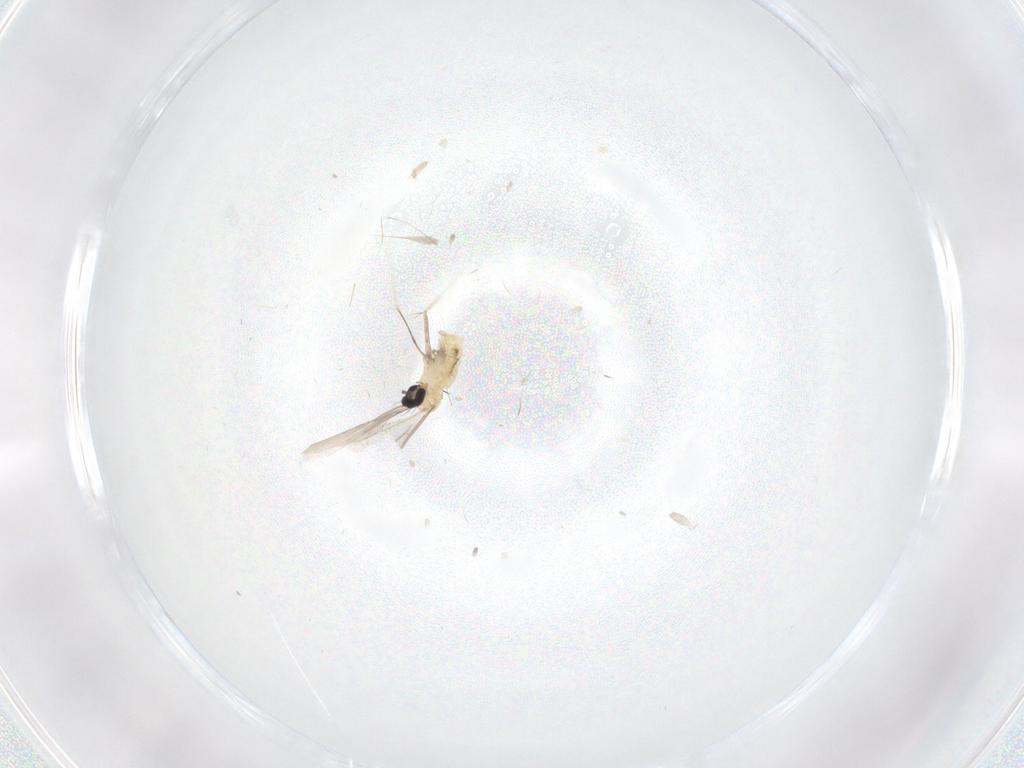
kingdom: Animalia
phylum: Arthropoda
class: Insecta
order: Diptera
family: Cecidomyiidae
